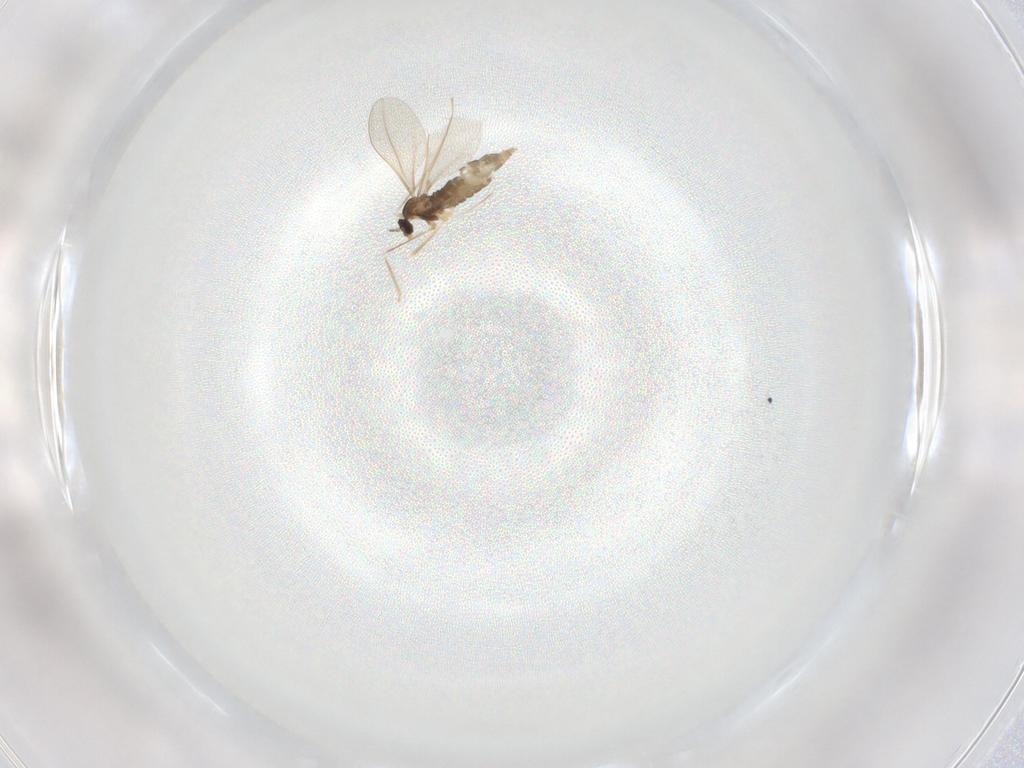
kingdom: Animalia
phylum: Arthropoda
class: Insecta
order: Diptera
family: Cecidomyiidae
